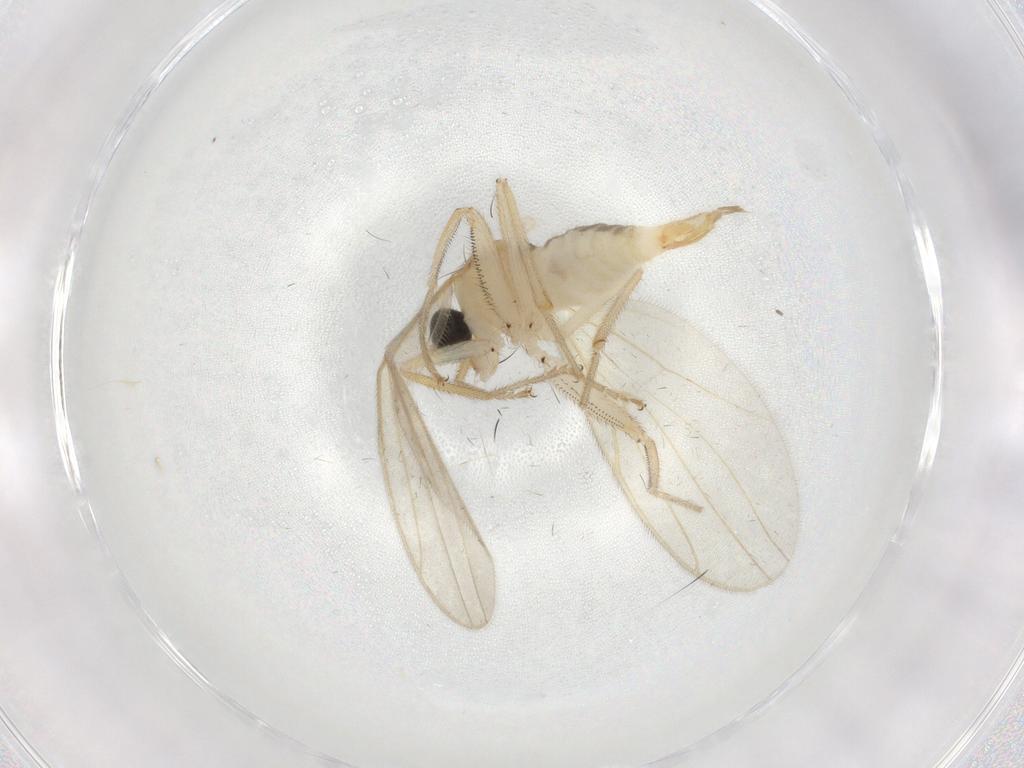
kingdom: Animalia
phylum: Arthropoda
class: Insecta
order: Diptera
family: Hybotidae
